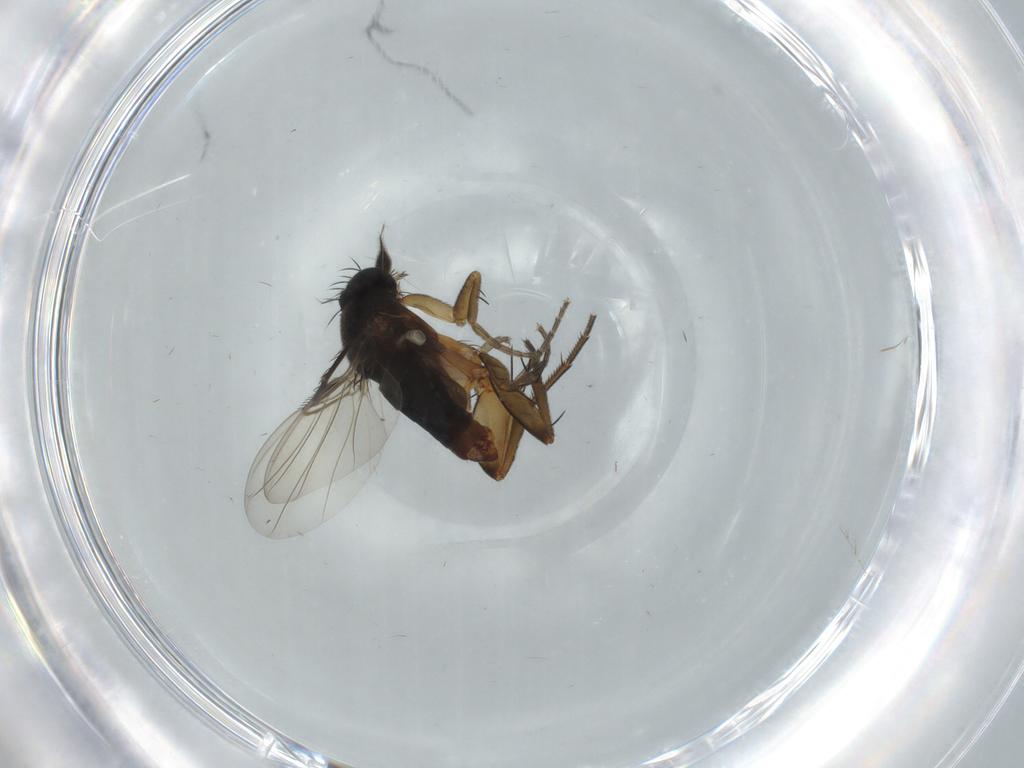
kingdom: Animalia
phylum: Arthropoda
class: Insecta
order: Diptera
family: Phoridae
